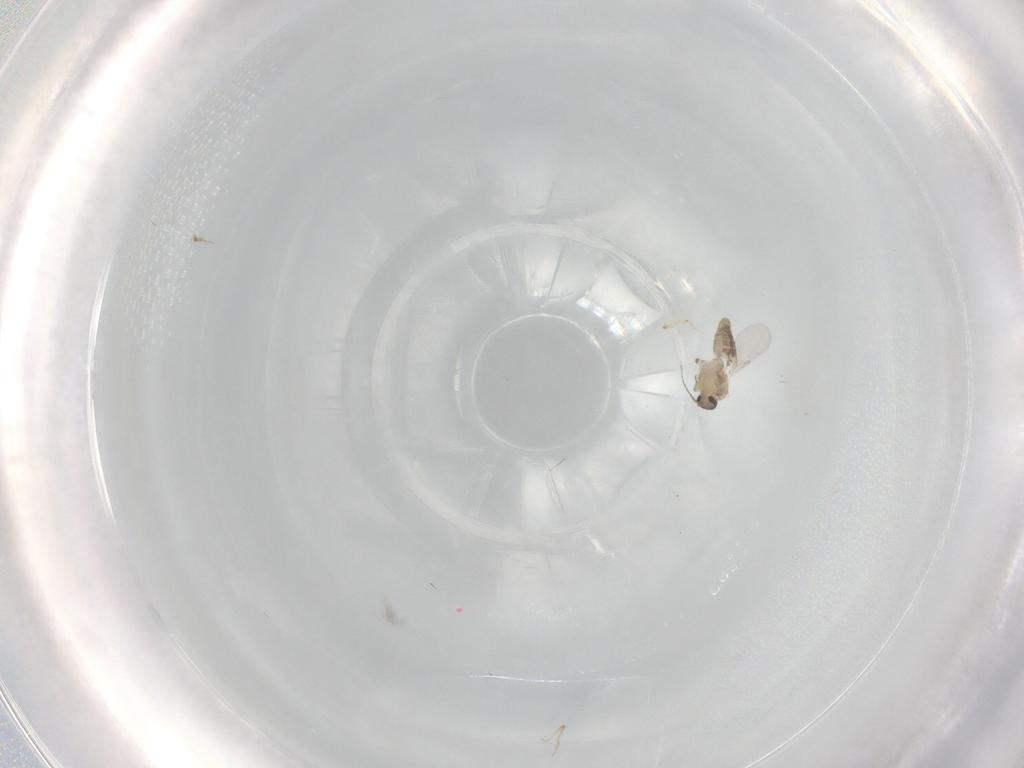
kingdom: Animalia
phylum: Arthropoda
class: Insecta
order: Diptera
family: Ceratopogonidae
